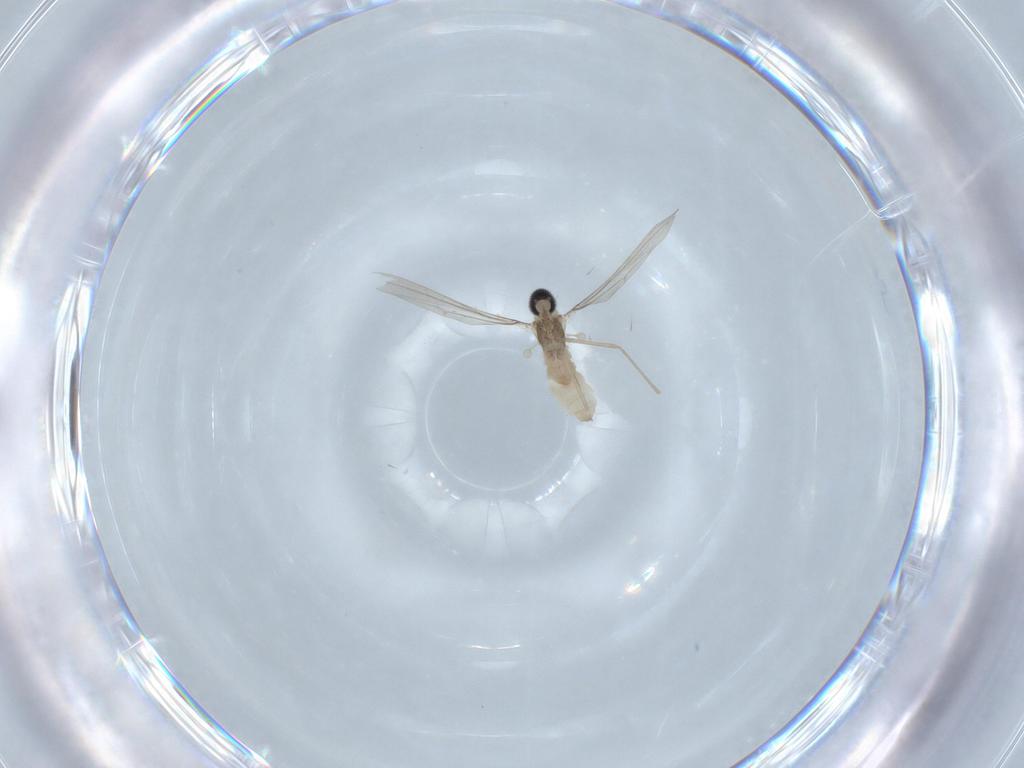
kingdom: Animalia
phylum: Arthropoda
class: Insecta
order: Diptera
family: Cecidomyiidae
